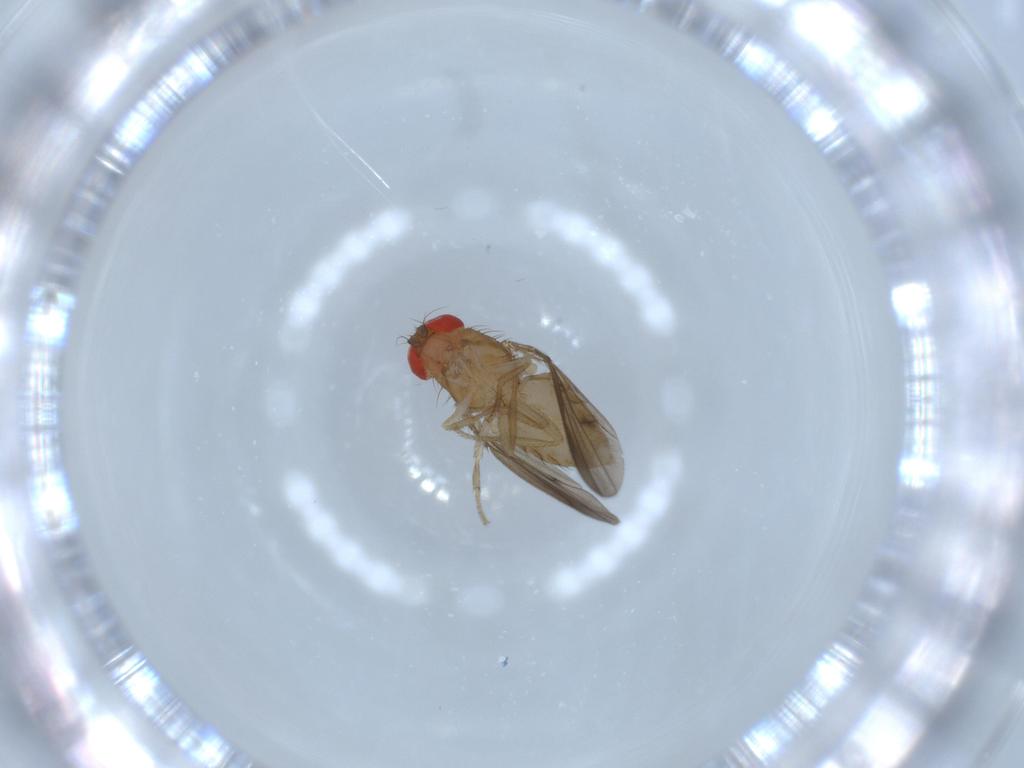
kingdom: Animalia
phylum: Arthropoda
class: Insecta
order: Diptera
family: Drosophilidae
